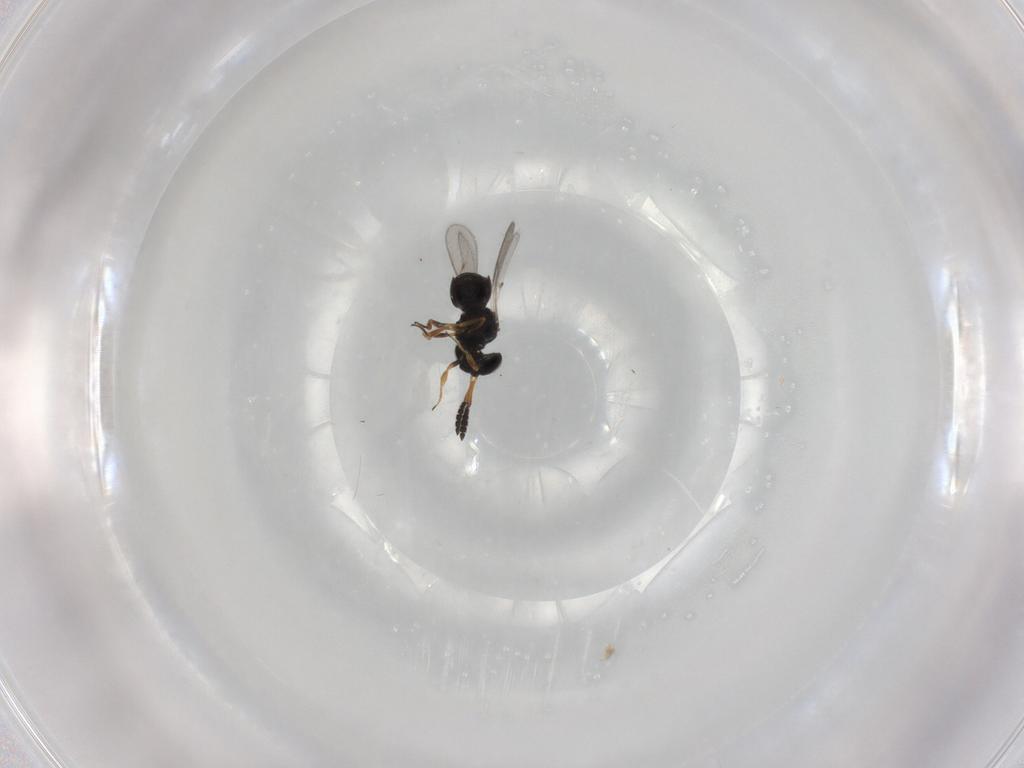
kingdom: Animalia
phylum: Arthropoda
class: Insecta
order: Hymenoptera
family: Scelionidae
